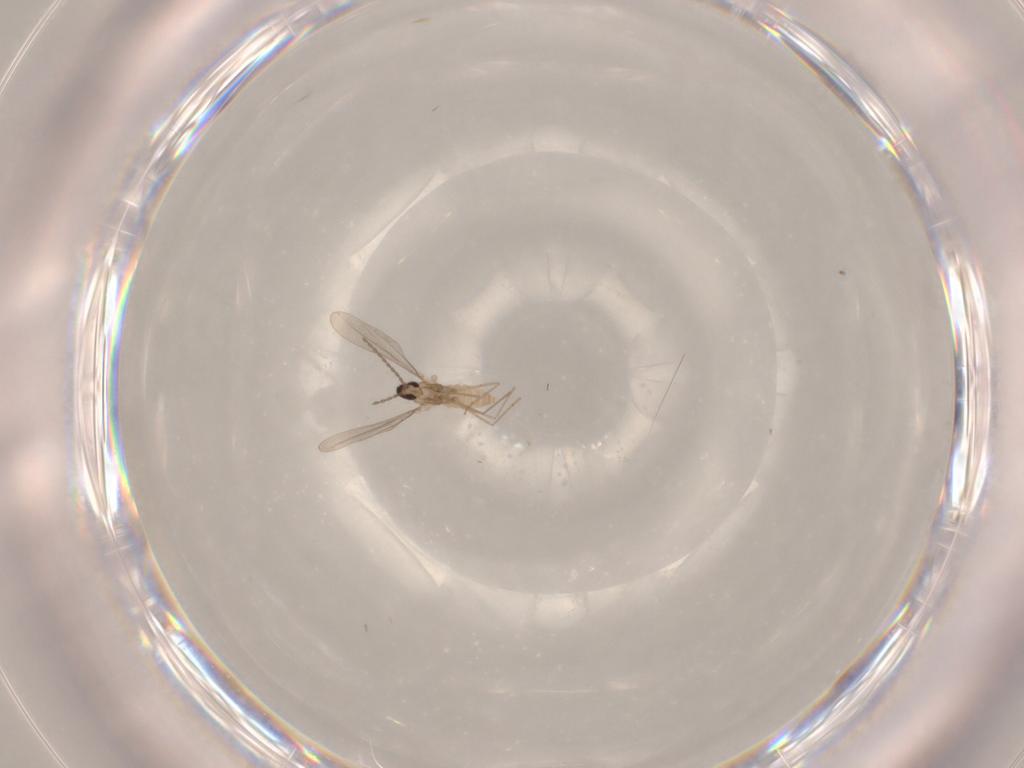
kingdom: Animalia
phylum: Arthropoda
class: Insecta
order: Diptera
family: Cecidomyiidae
